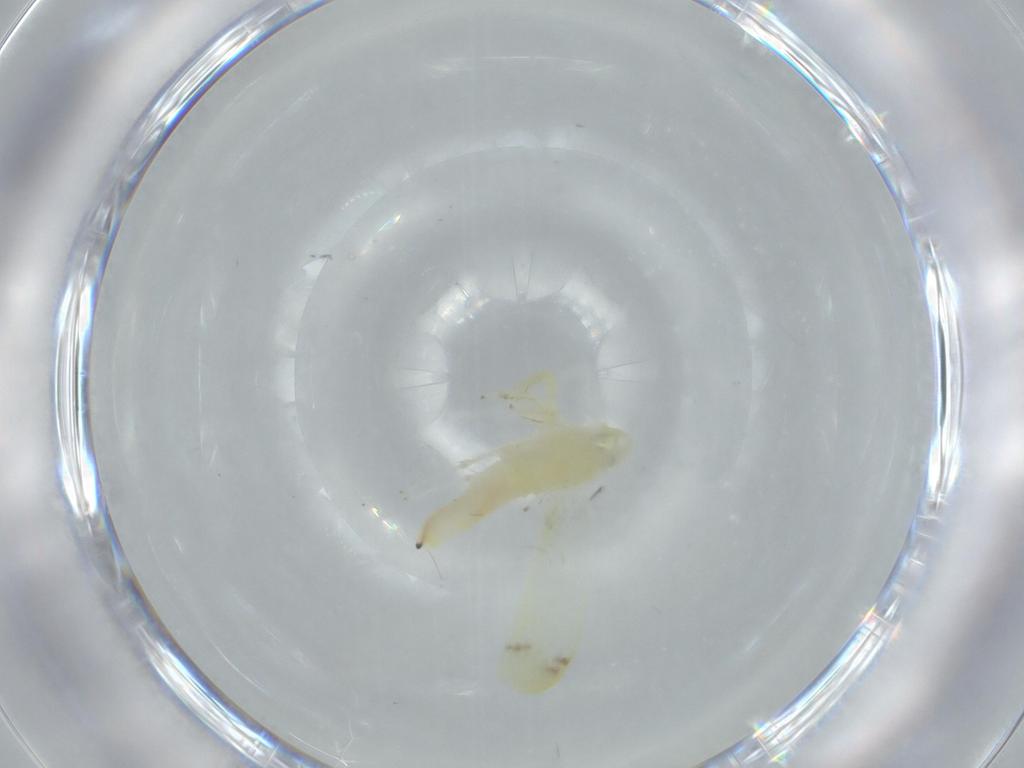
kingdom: Animalia
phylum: Arthropoda
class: Insecta
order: Hemiptera
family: Cicadellidae
